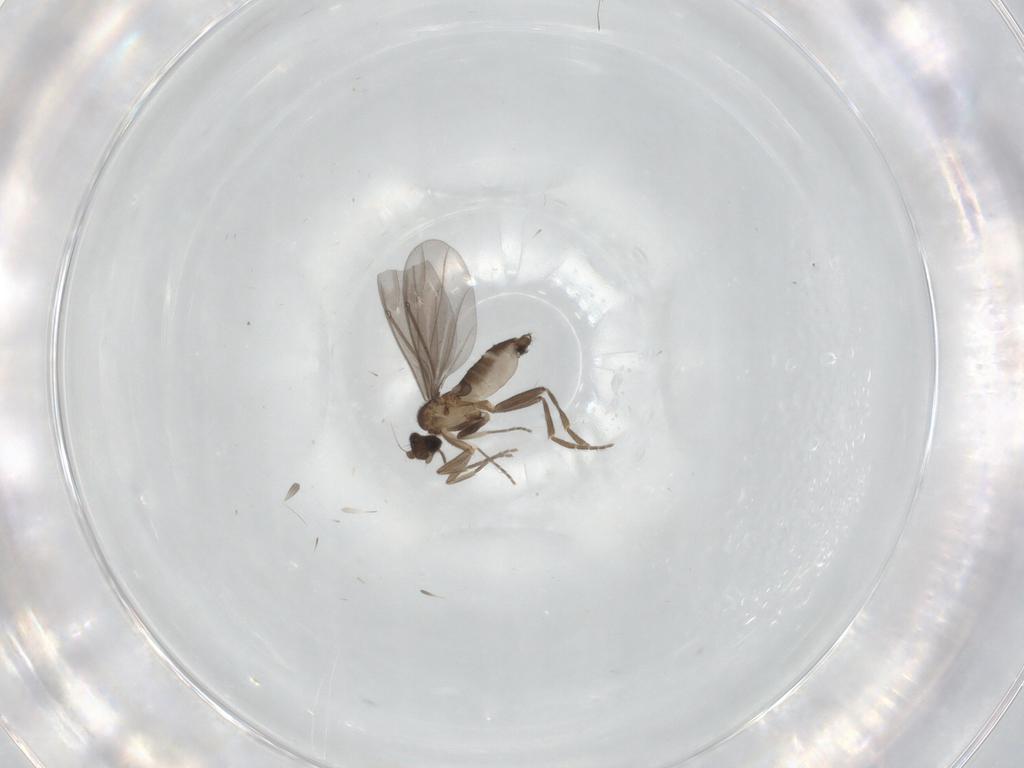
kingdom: Animalia
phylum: Arthropoda
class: Insecta
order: Diptera
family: Phoridae
